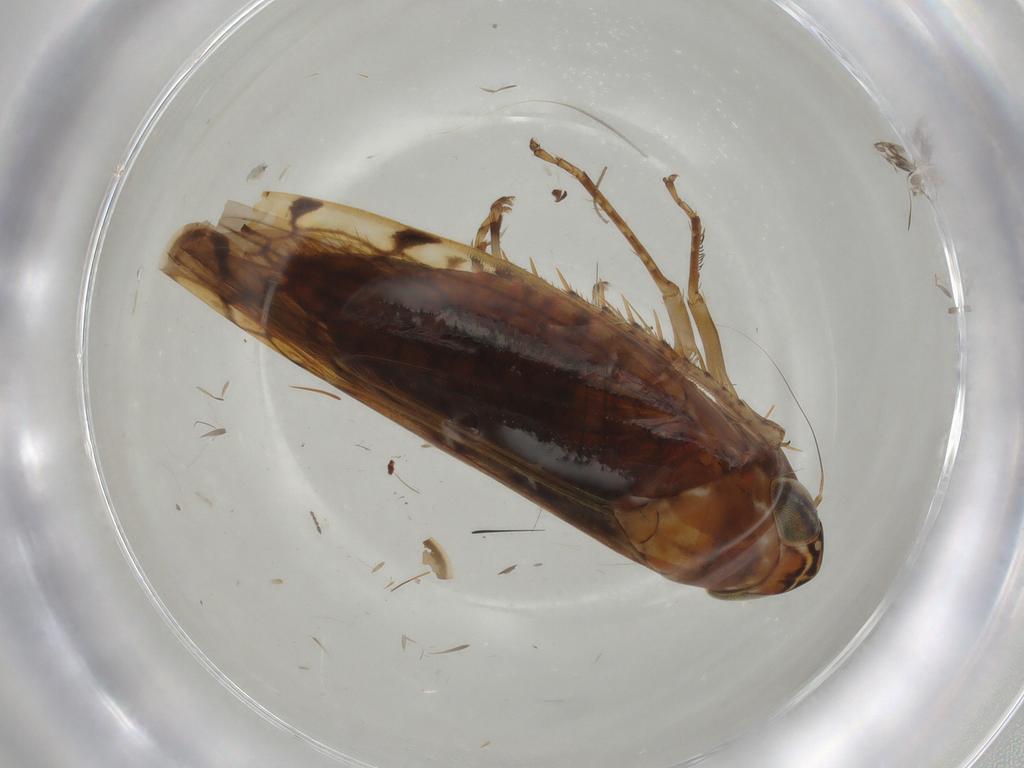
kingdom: Animalia
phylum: Arthropoda
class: Insecta
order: Hemiptera
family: Cicadellidae
